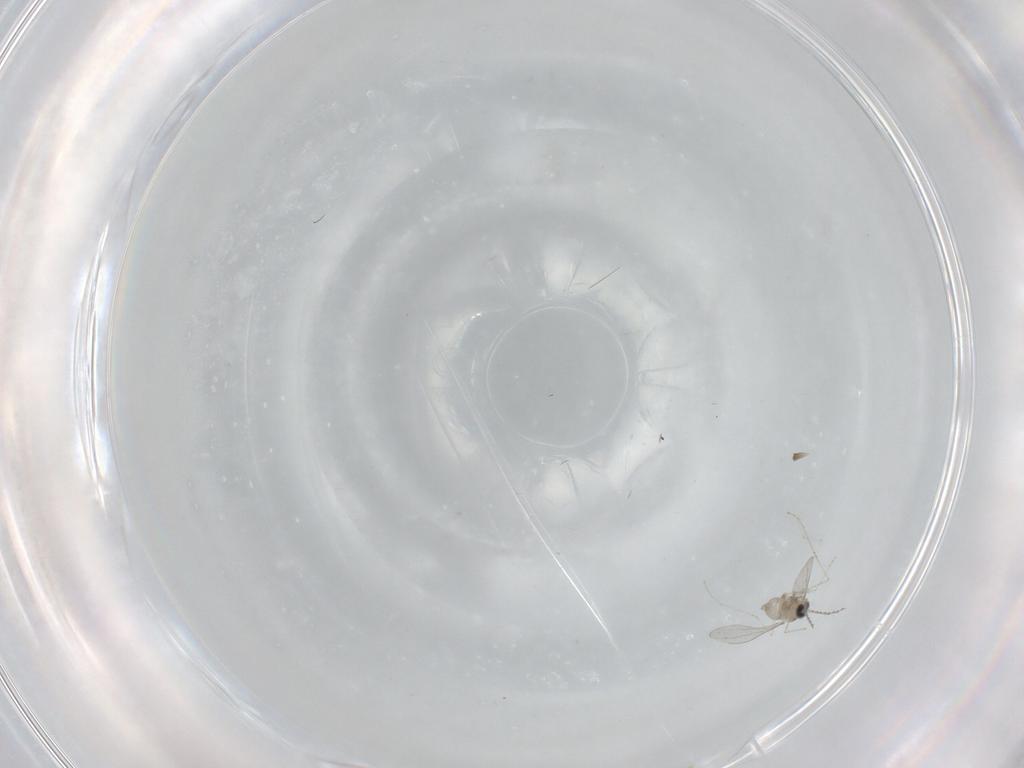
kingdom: Animalia
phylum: Arthropoda
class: Insecta
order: Diptera
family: Cecidomyiidae
